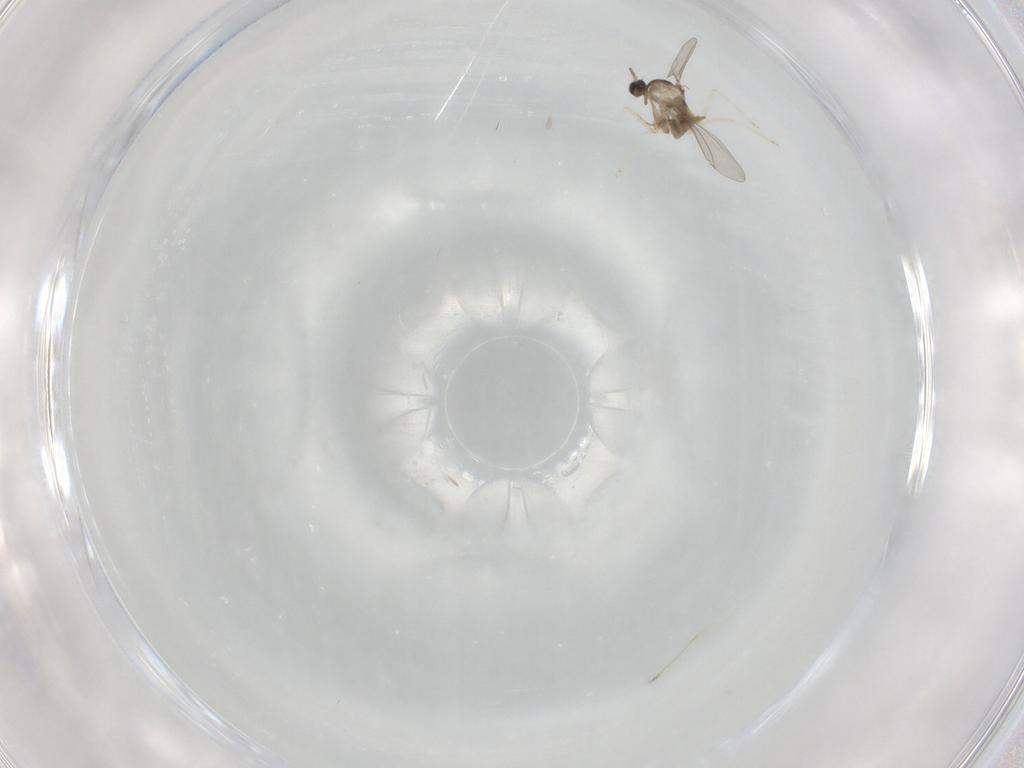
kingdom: Animalia
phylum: Arthropoda
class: Insecta
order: Diptera
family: Cecidomyiidae
